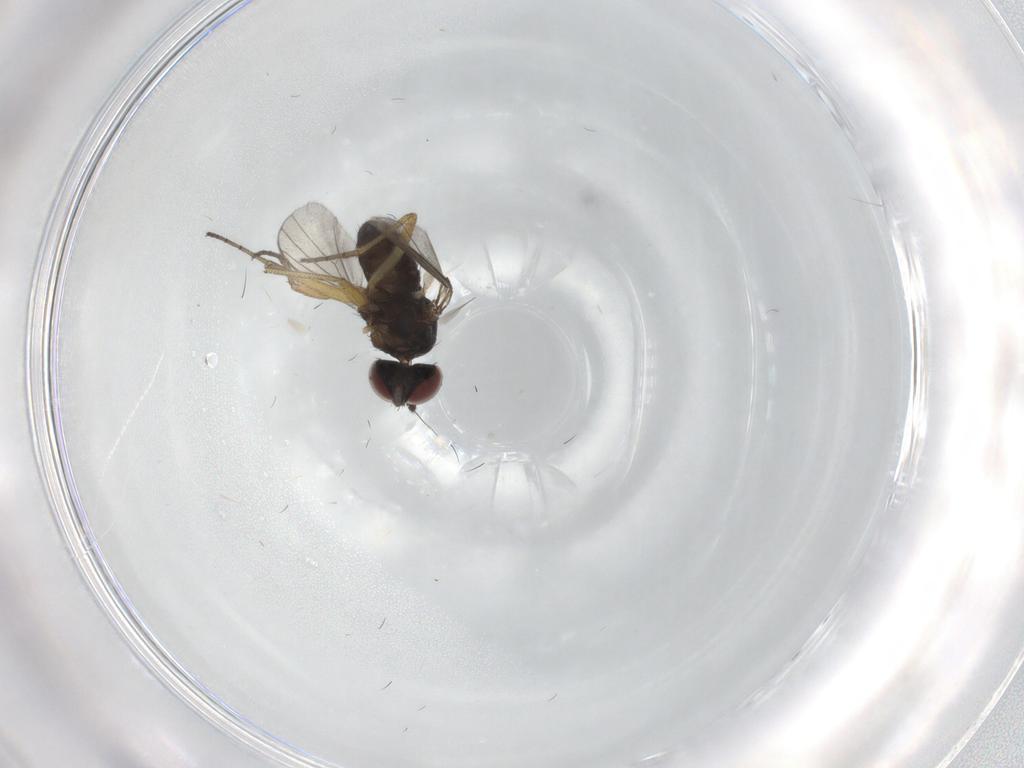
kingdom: Animalia
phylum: Arthropoda
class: Insecta
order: Diptera
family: Dolichopodidae
